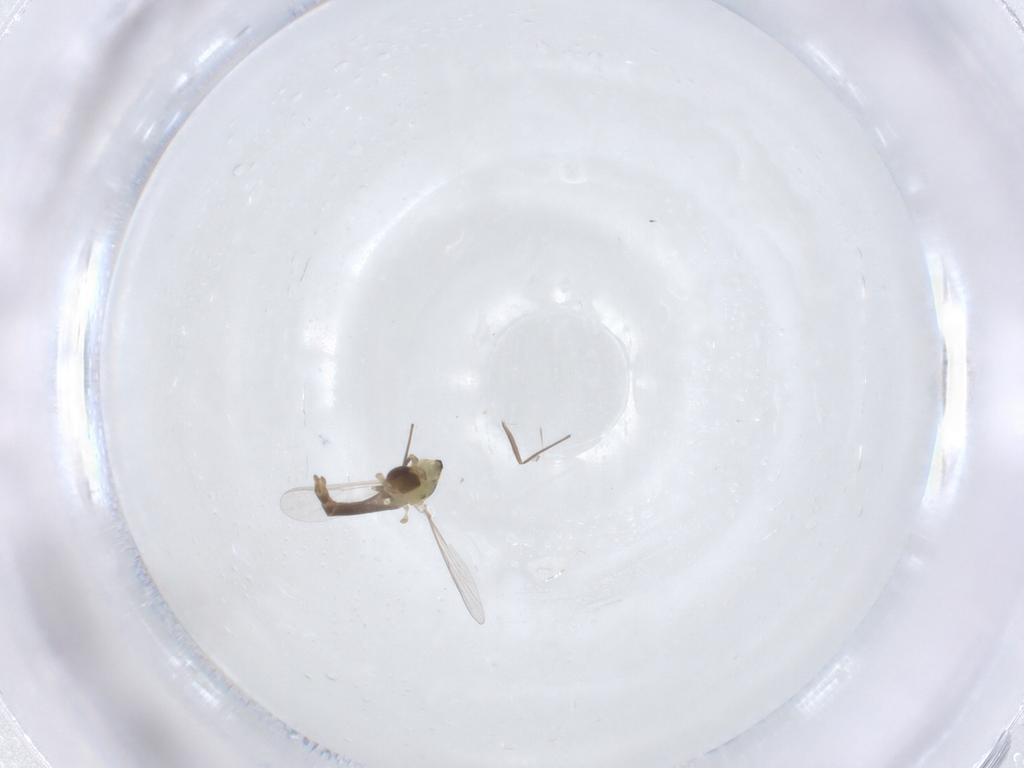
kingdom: Animalia
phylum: Arthropoda
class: Insecta
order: Diptera
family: Chironomidae
